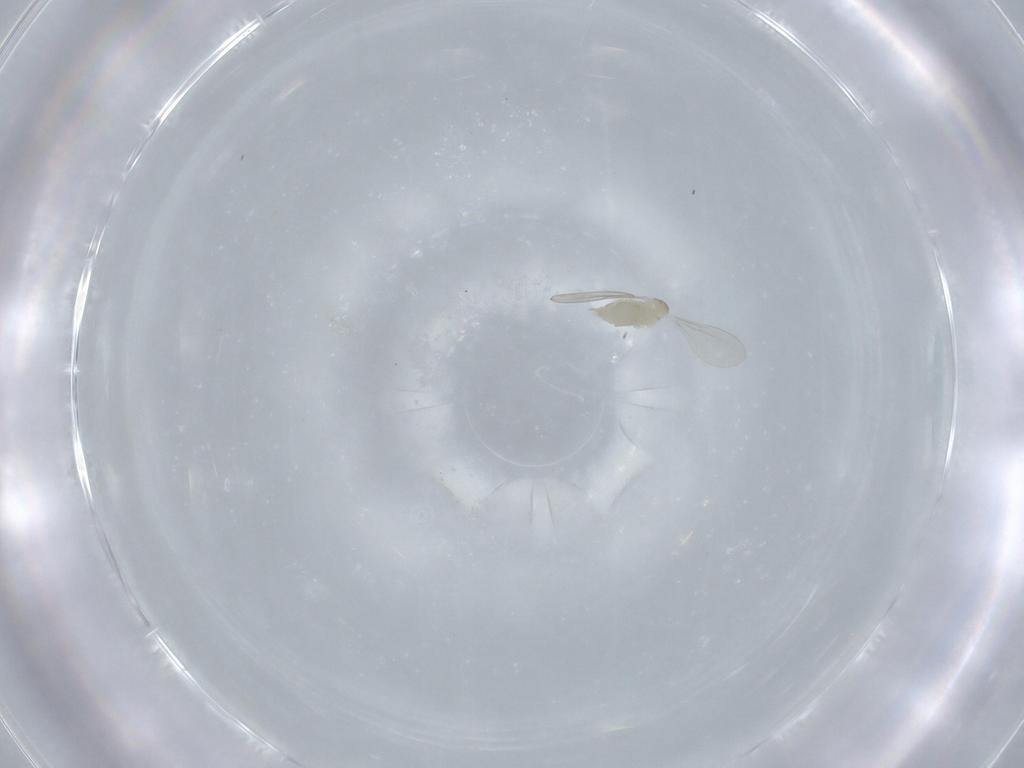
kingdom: Animalia
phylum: Arthropoda
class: Insecta
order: Diptera
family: Cecidomyiidae
